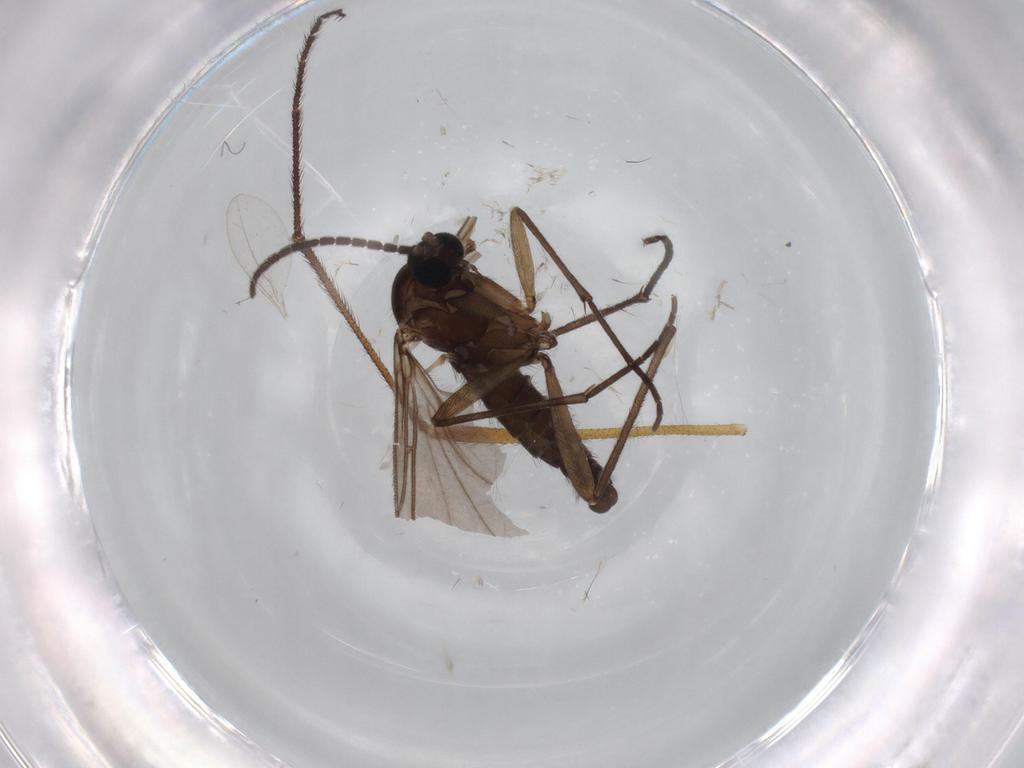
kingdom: Animalia
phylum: Arthropoda
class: Insecta
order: Diptera
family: Sciaridae
